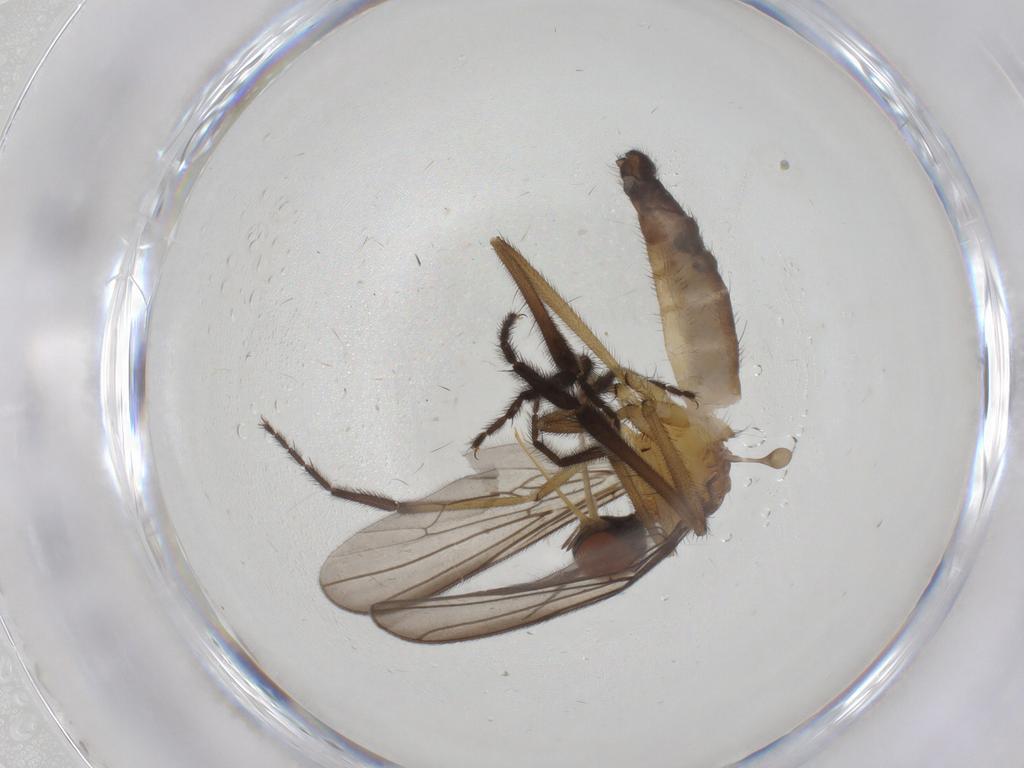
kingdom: Animalia
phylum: Arthropoda
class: Insecta
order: Diptera
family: Empididae
